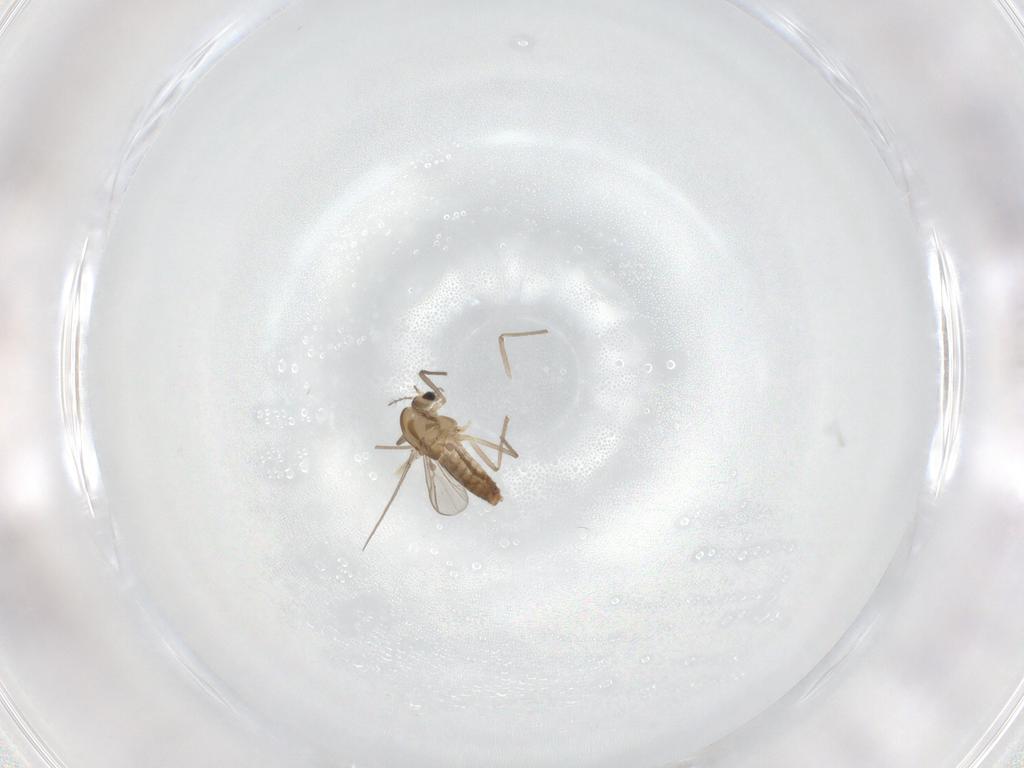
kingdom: Animalia
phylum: Arthropoda
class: Insecta
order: Diptera
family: Chironomidae
